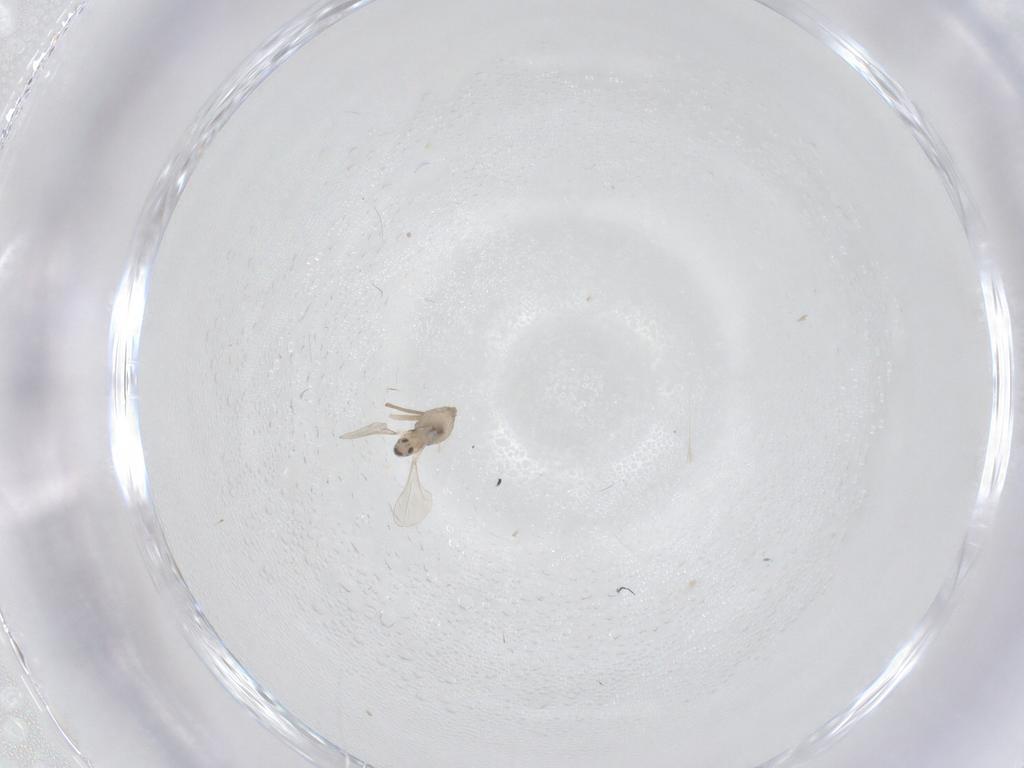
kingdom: Animalia
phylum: Arthropoda
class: Insecta
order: Diptera
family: Cecidomyiidae
